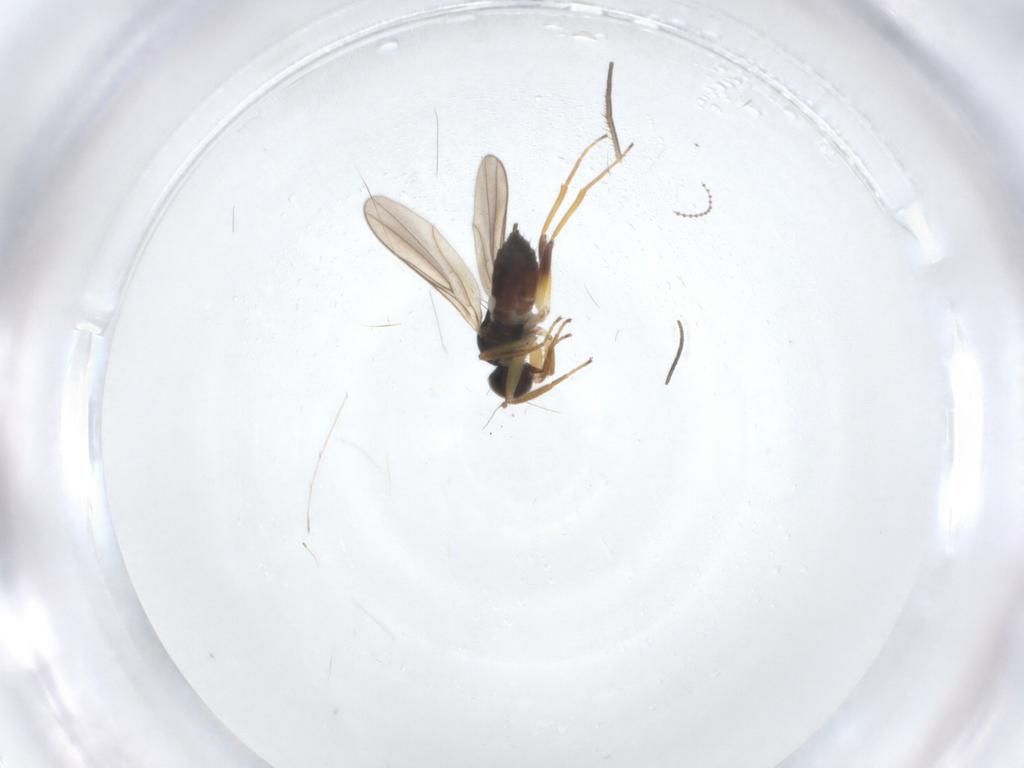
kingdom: Animalia
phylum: Arthropoda
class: Insecta
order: Diptera
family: Hybotidae
